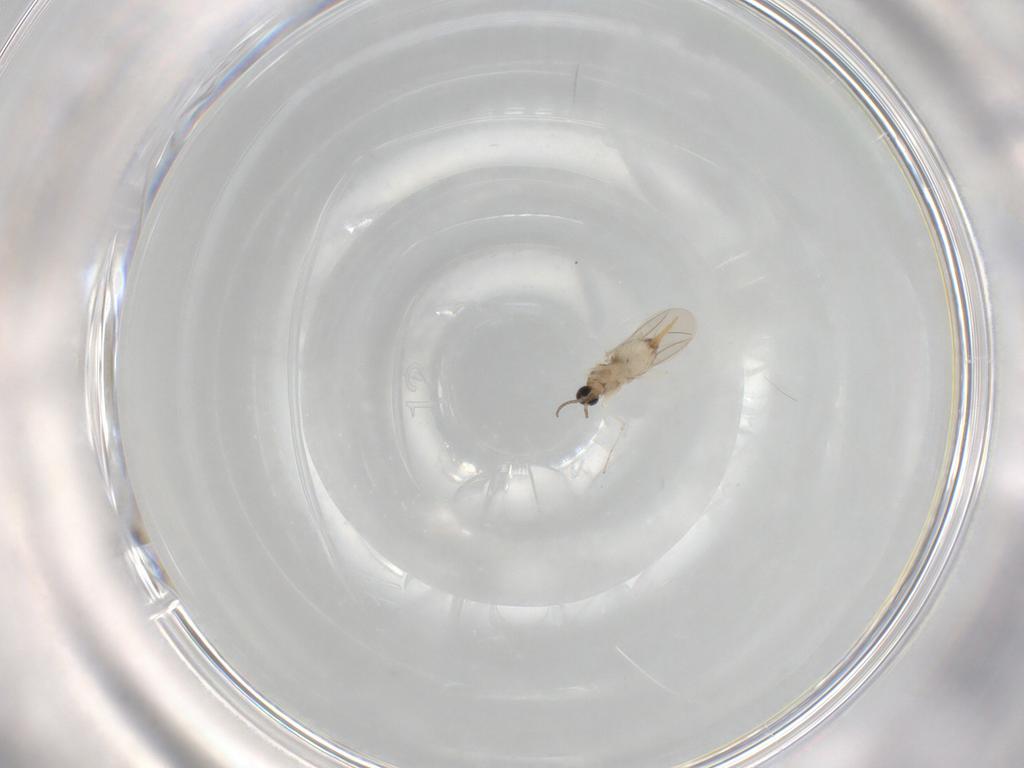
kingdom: Animalia
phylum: Arthropoda
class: Insecta
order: Diptera
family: Cecidomyiidae
